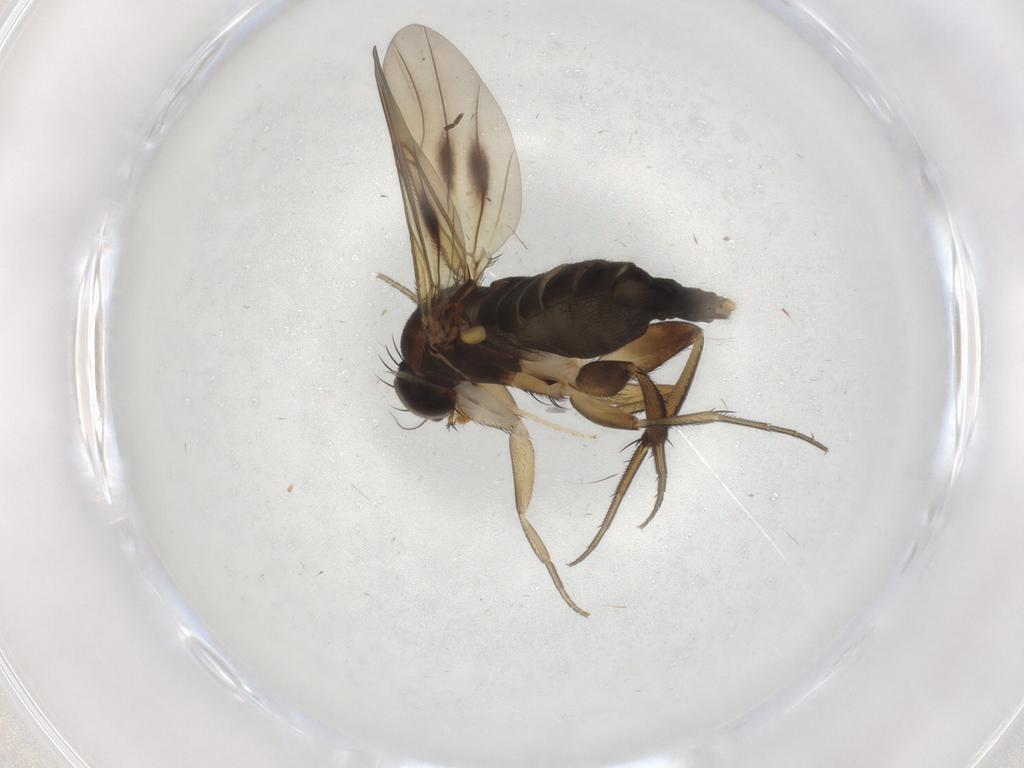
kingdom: Animalia
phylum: Arthropoda
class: Insecta
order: Diptera
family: Phoridae
